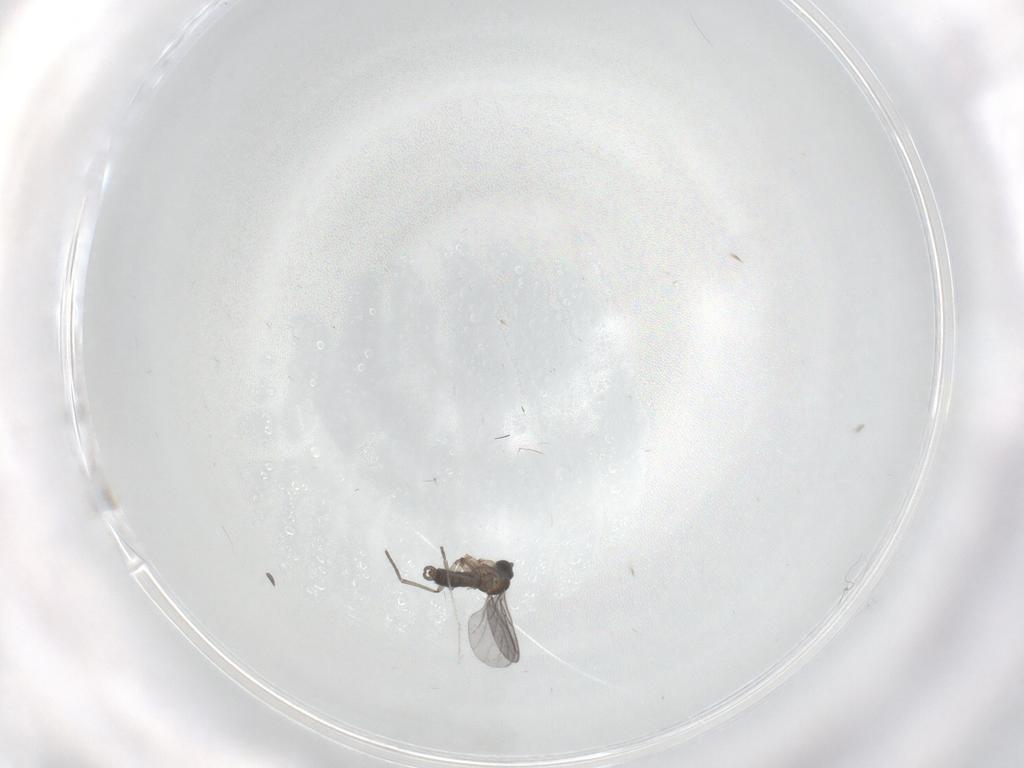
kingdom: Animalia
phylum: Arthropoda
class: Insecta
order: Diptera
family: Sciaridae
